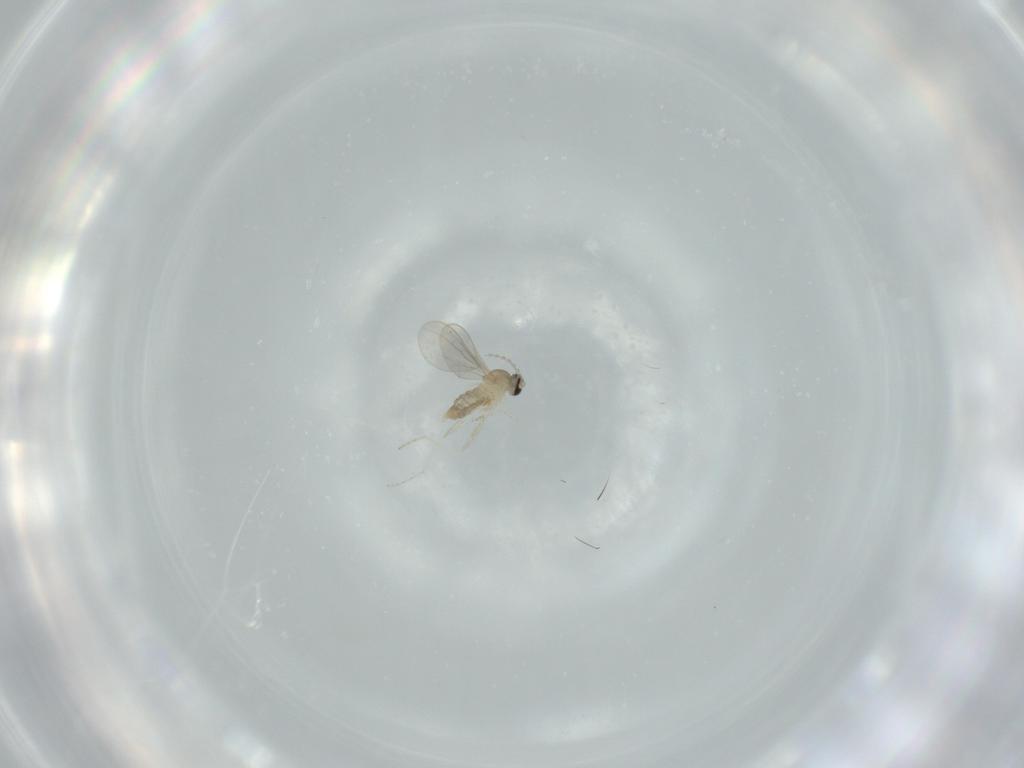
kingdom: Animalia
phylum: Arthropoda
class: Insecta
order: Diptera
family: Cecidomyiidae
